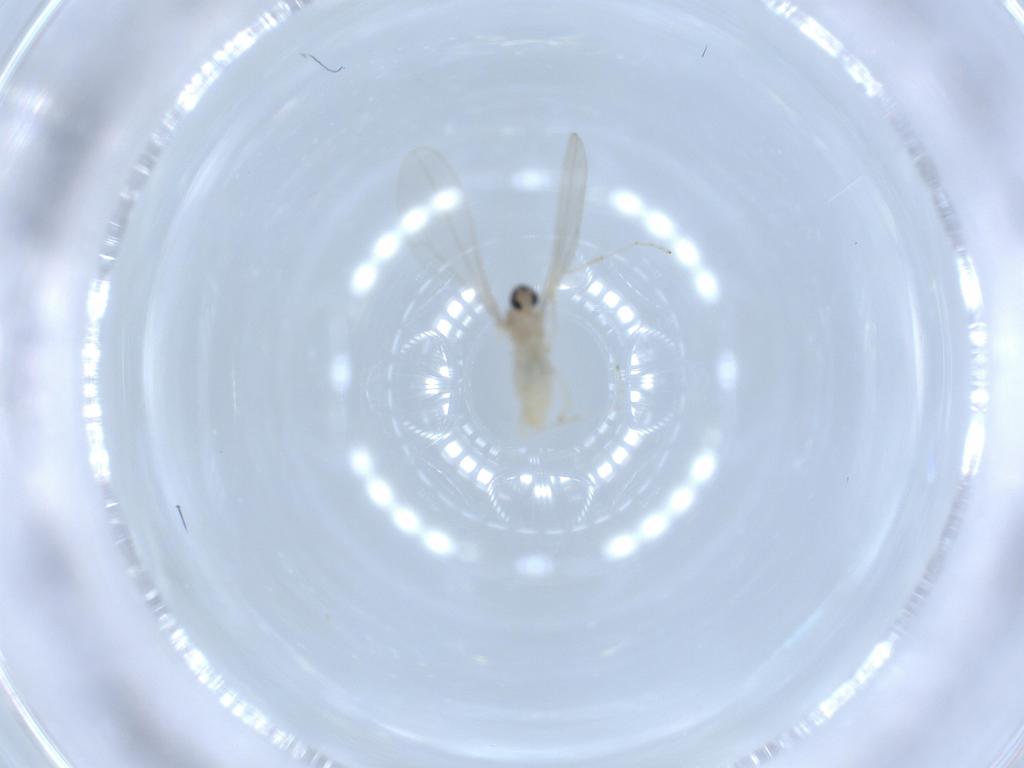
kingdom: Animalia
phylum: Arthropoda
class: Insecta
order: Diptera
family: Cecidomyiidae
